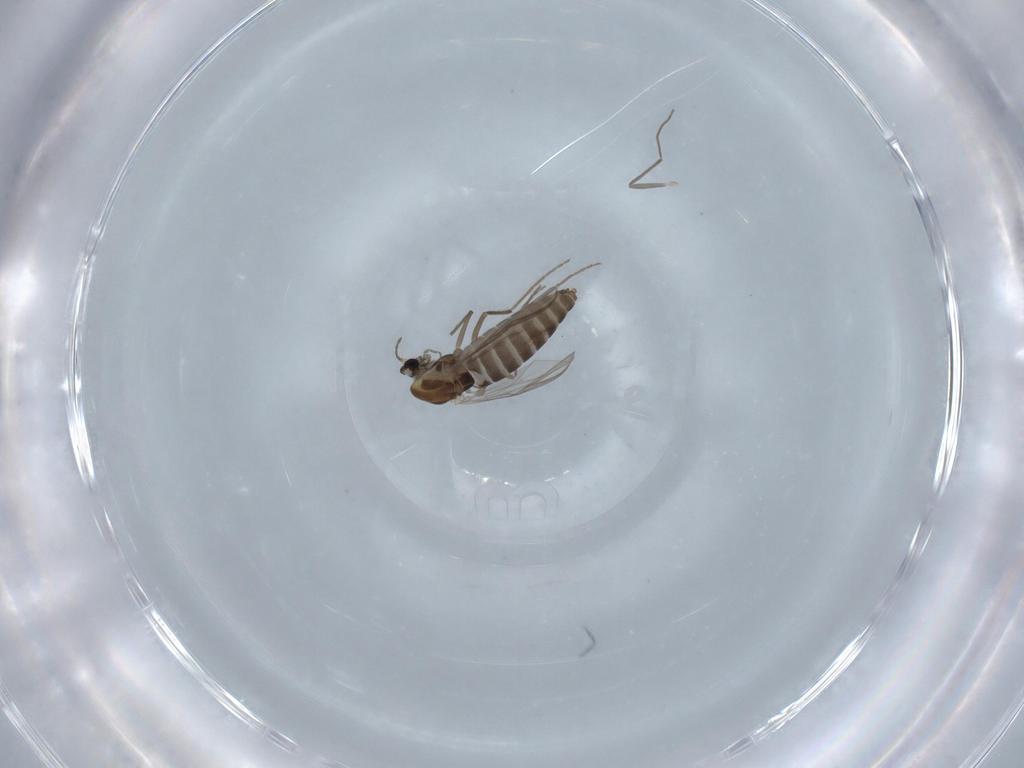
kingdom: Animalia
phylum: Arthropoda
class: Insecta
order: Diptera
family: Chironomidae
